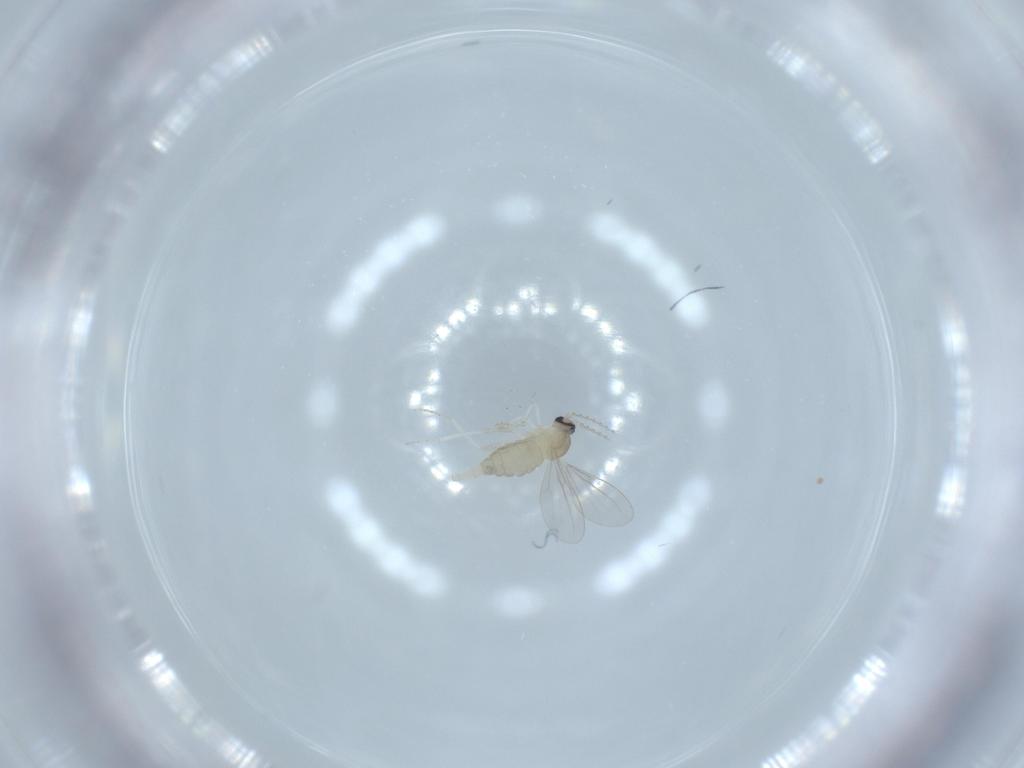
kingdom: Animalia
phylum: Arthropoda
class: Insecta
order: Diptera
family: Cecidomyiidae
